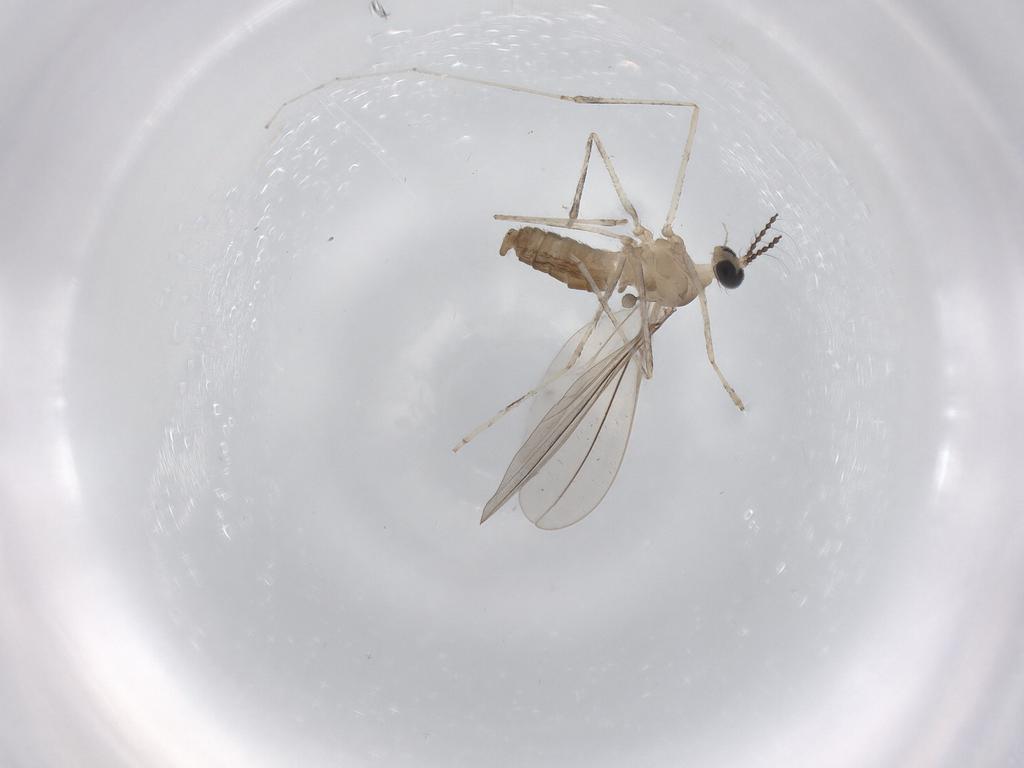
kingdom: Animalia
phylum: Arthropoda
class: Insecta
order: Diptera
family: Cecidomyiidae
